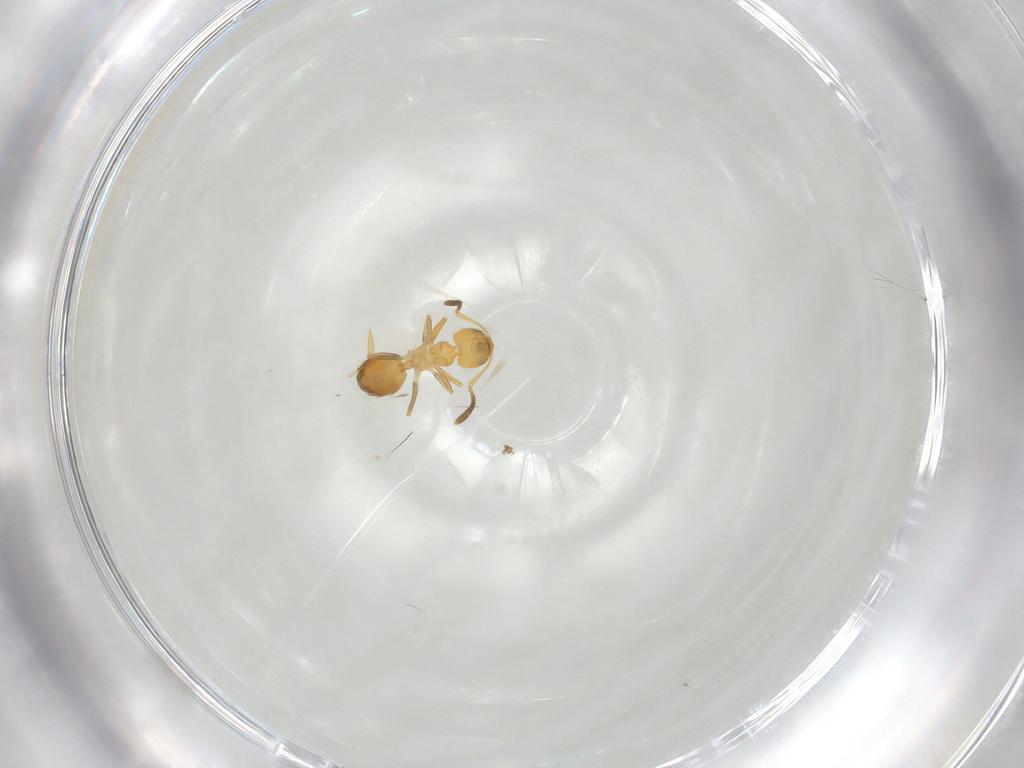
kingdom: Animalia
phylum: Arthropoda
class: Insecta
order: Hymenoptera
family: Formicidae
